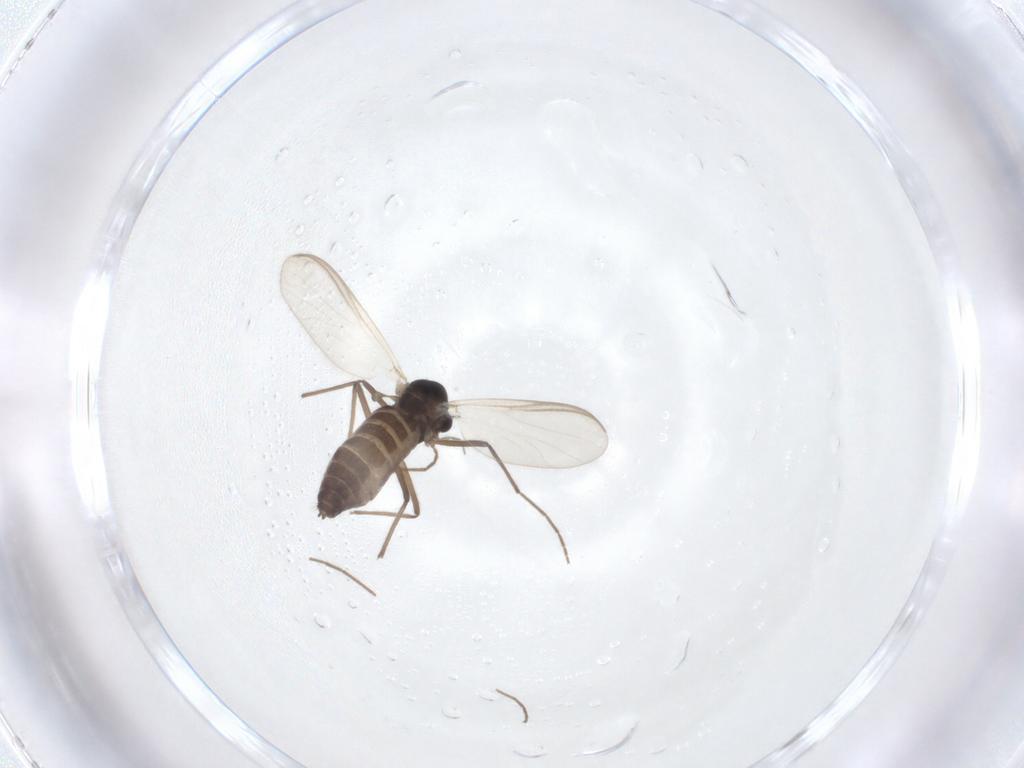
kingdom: Animalia
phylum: Arthropoda
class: Insecta
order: Diptera
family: Chironomidae
